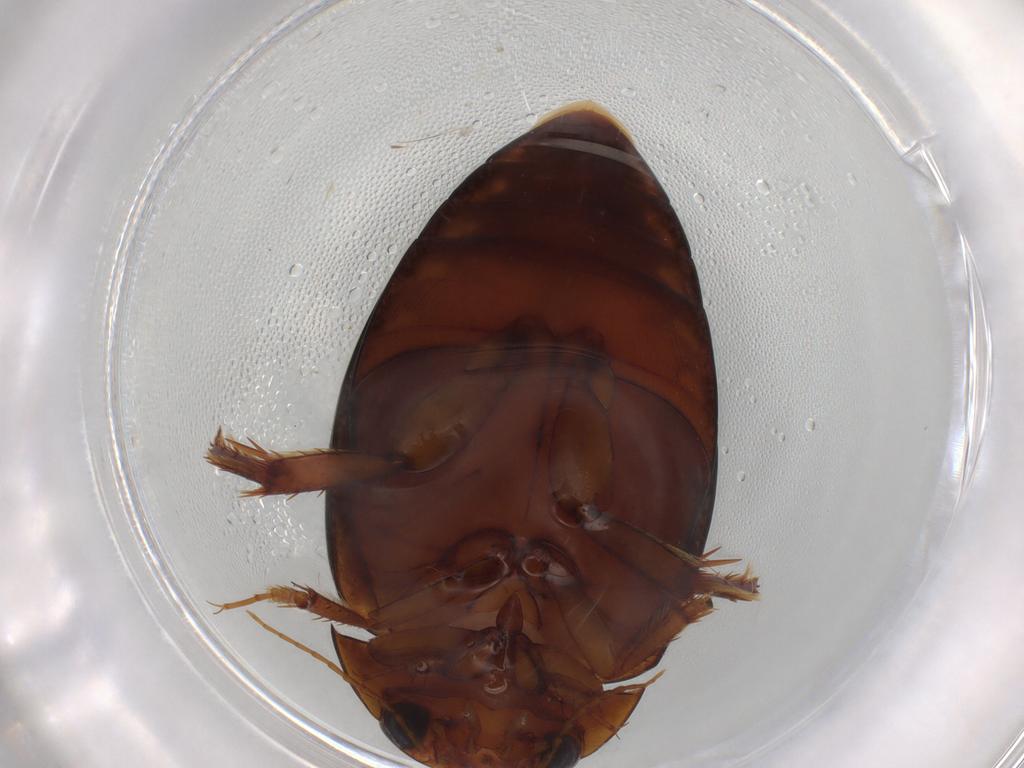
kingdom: Animalia
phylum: Arthropoda
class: Insecta
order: Coleoptera
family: Dytiscidae
